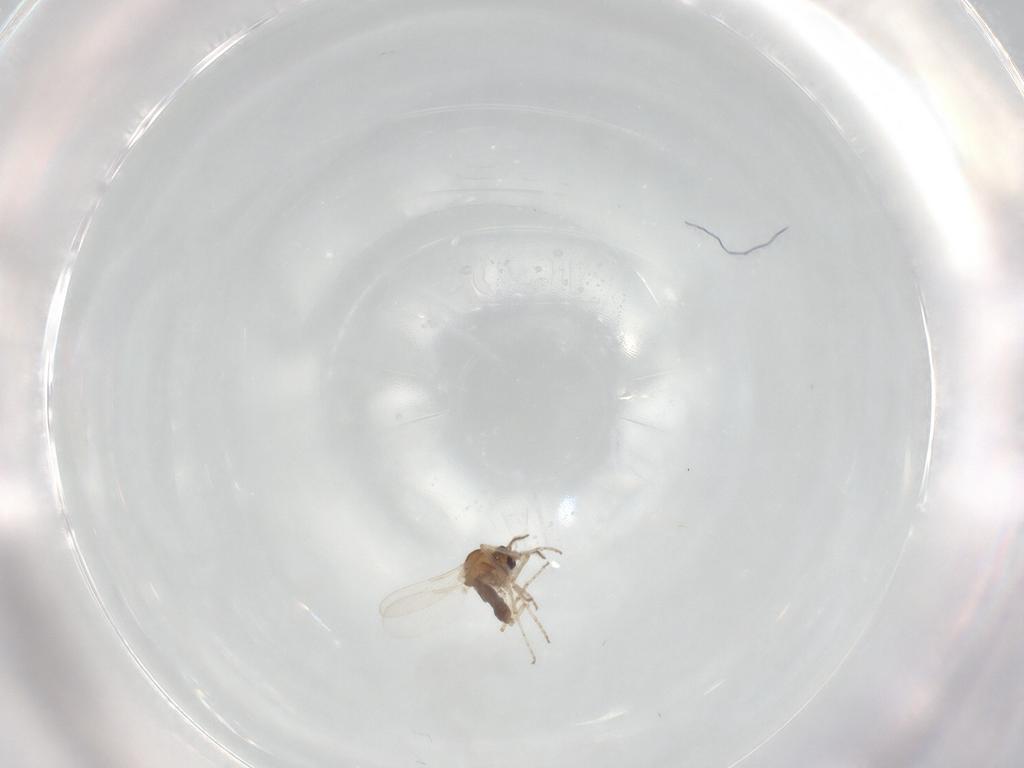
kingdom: Animalia
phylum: Arthropoda
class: Insecta
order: Diptera
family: Ceratopogonidae
